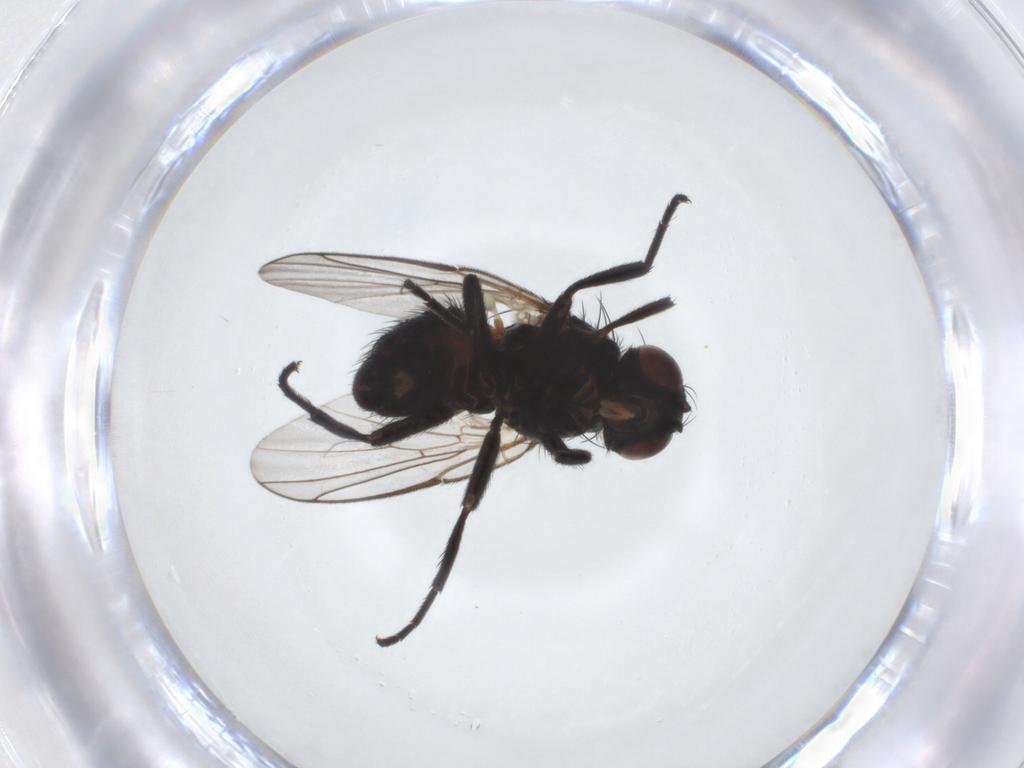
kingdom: Animalia
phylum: Arthropoda
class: Insecta
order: Diptera
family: Agromyzidae
